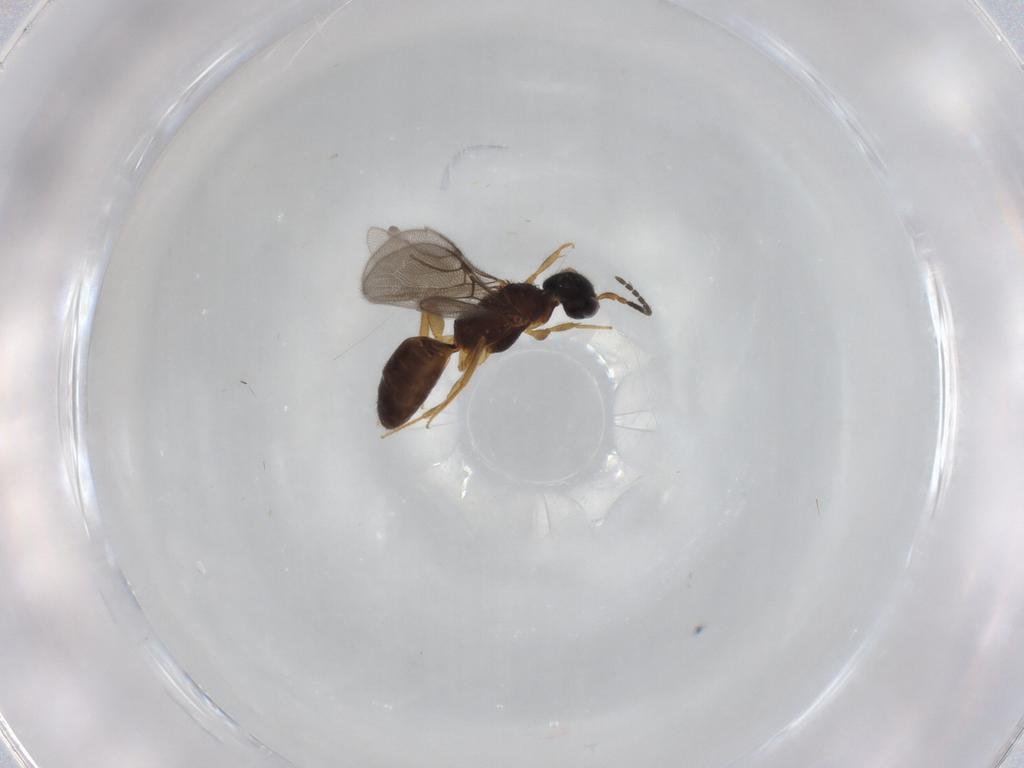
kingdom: Animalia
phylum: Arthropoda
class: Insecta
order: Hymenoptera
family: Bethylidae
